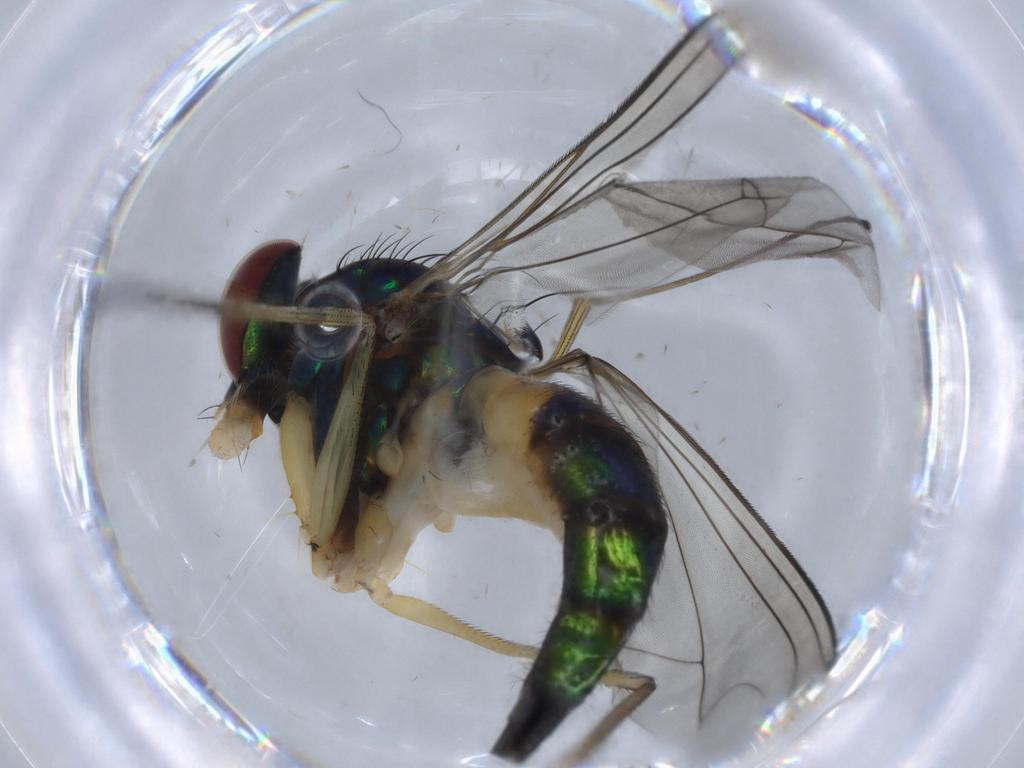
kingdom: Animalia
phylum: Arthropoda
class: Insecta
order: Diptera
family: Dolichopodidae
